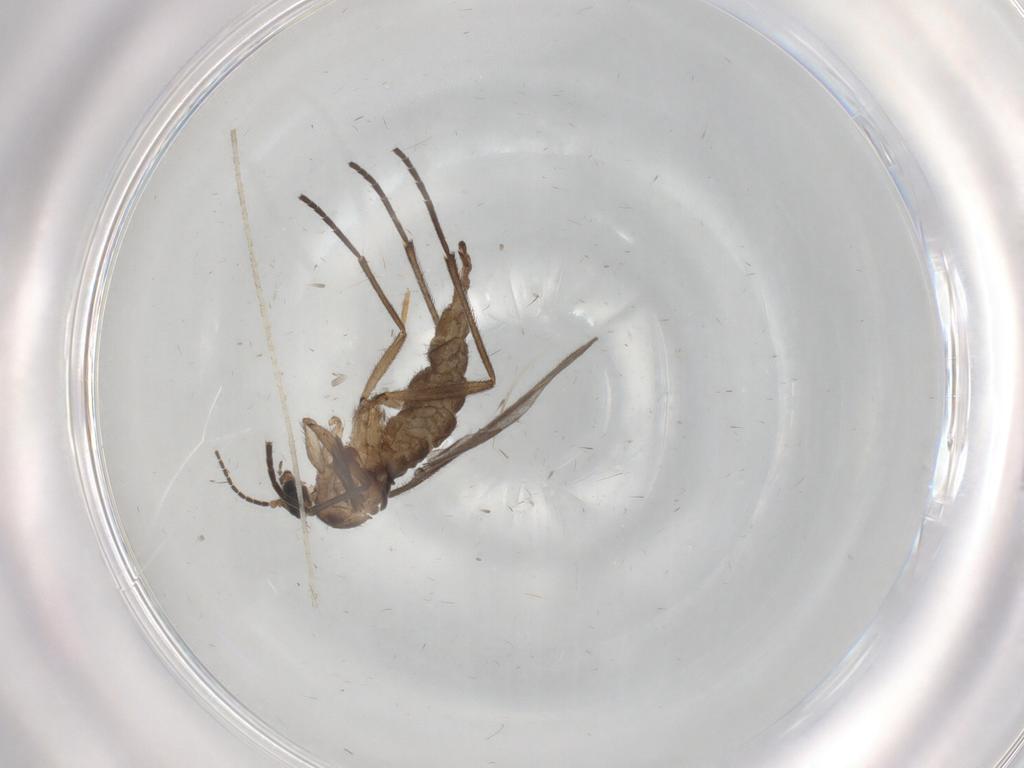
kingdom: Animalia
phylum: Arthropoda
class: Insecta
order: Diptera
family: Sciaridae
